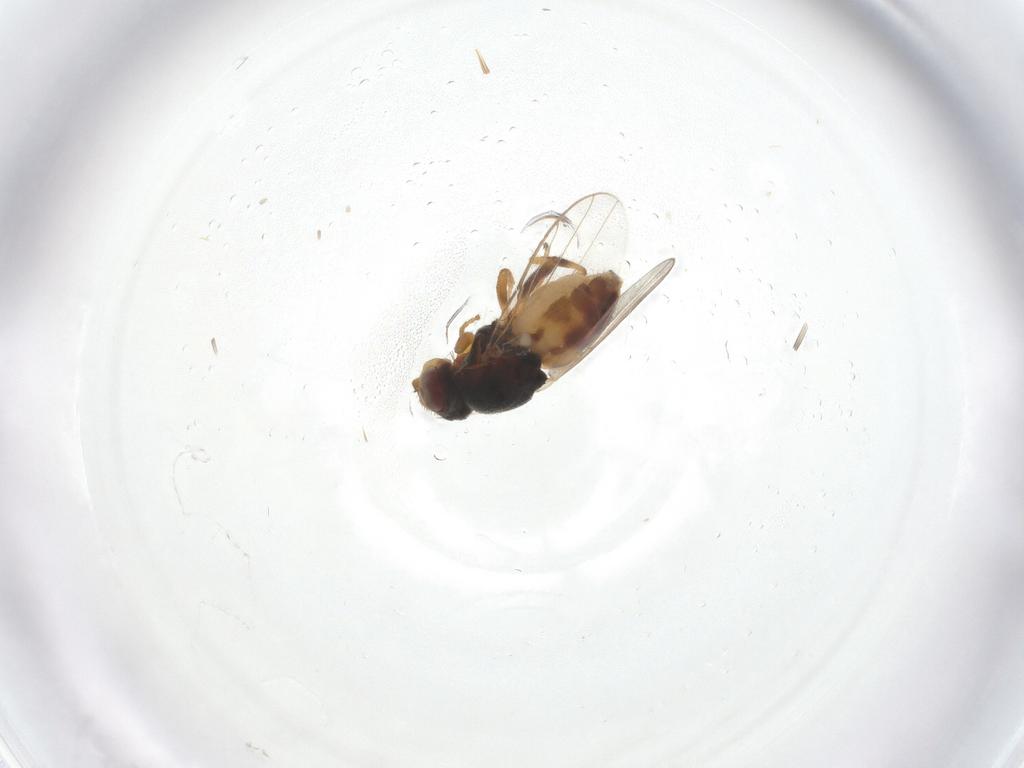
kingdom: Animalia
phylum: Arthropoda
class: Insecta
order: Diptera
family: Chloropidae
